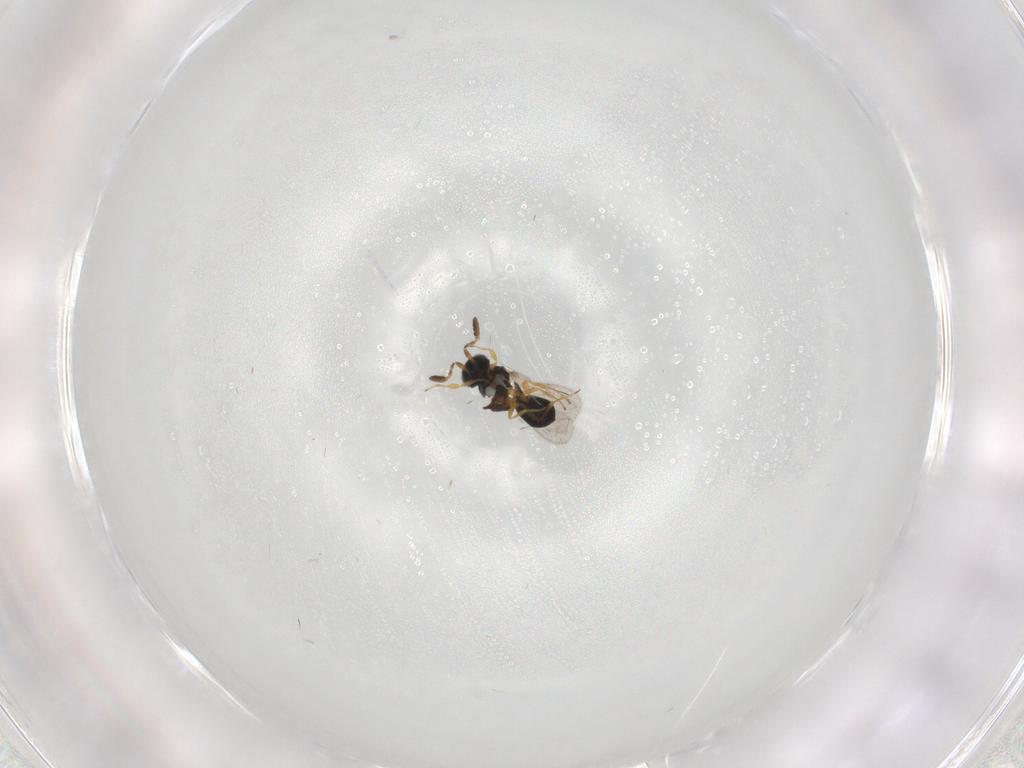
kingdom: Animalia
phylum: Arthropoda
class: Insecta
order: Hymenoptera
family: Scelionidae
